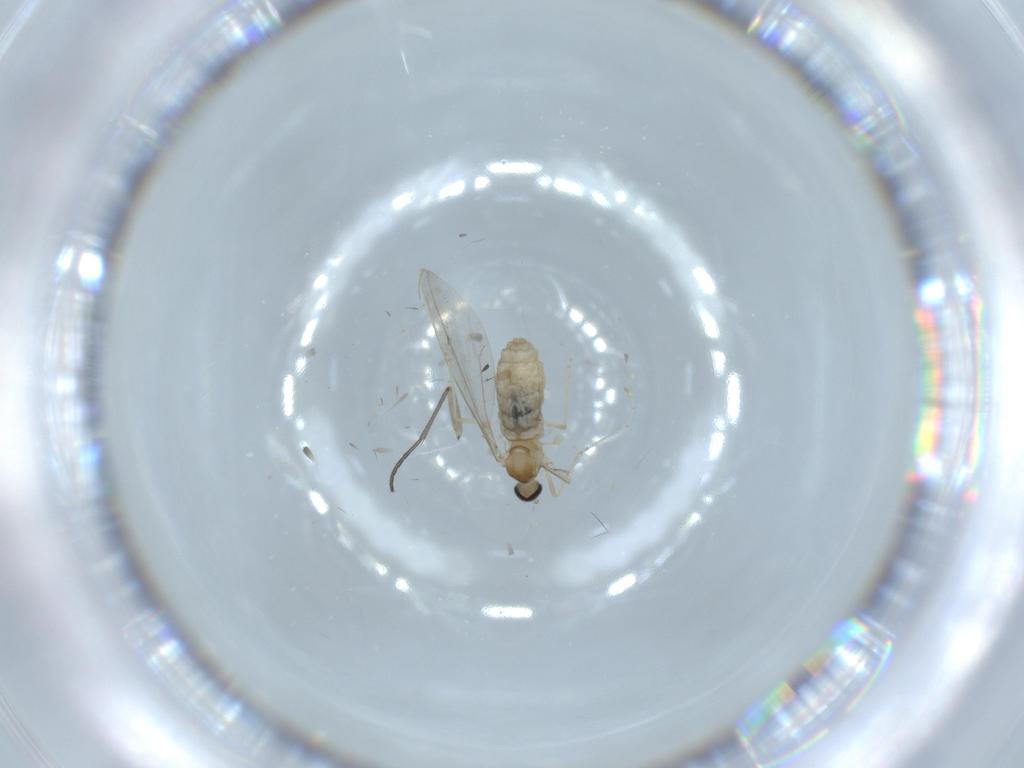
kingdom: Animalia
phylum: Arthropoda
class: Insecta
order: Diptera
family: Cecidomyiidae
